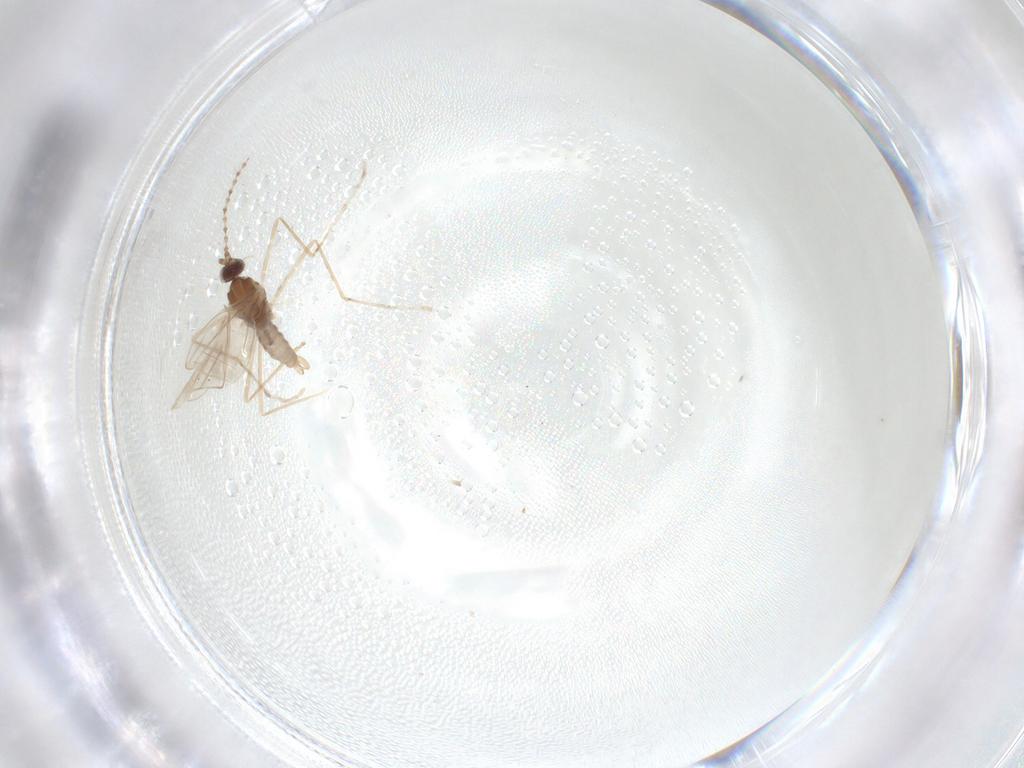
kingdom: Animalia
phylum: Arthropoda
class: Insecta
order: Diptera
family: Cecidomyiidae
